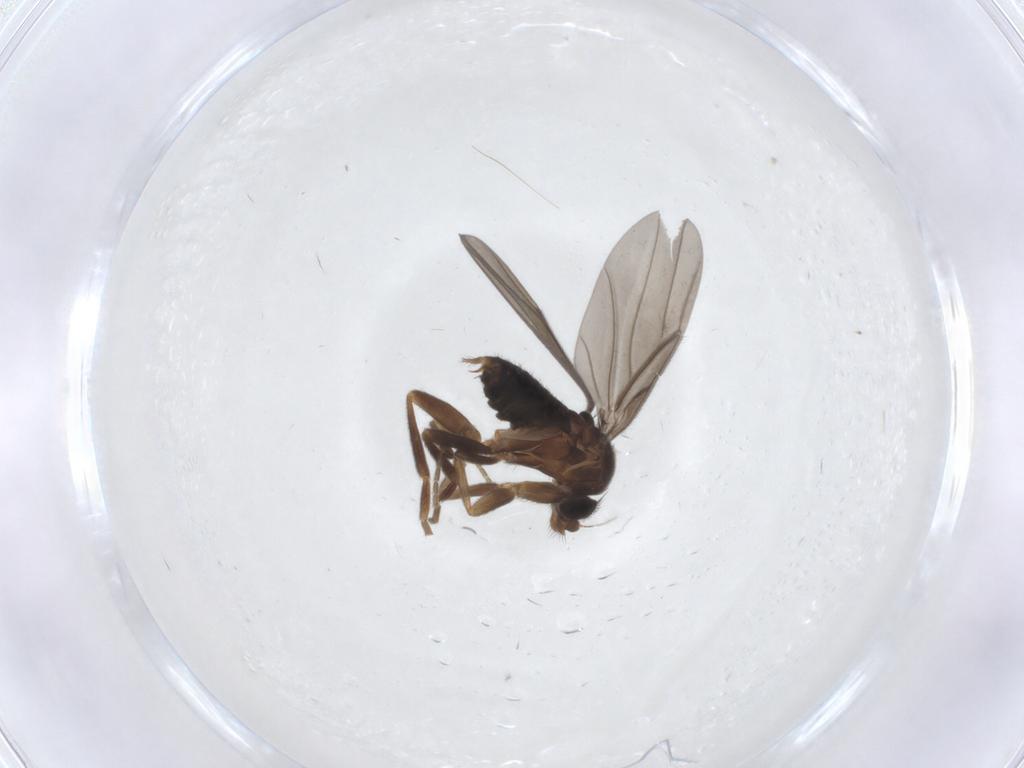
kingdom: Animalia
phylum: Arthropoda
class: Insecta
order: Diptera
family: Phoridae
